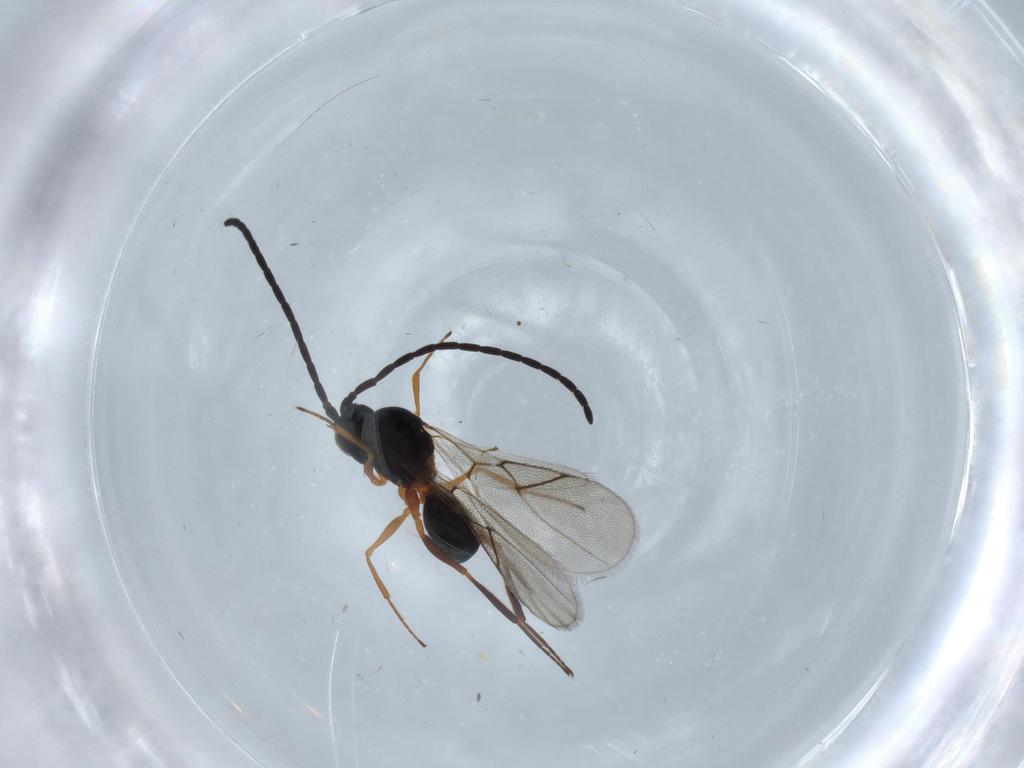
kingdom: Animalia
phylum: Arthropoda
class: Insecta
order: Hymenoptera
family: Figitidae
